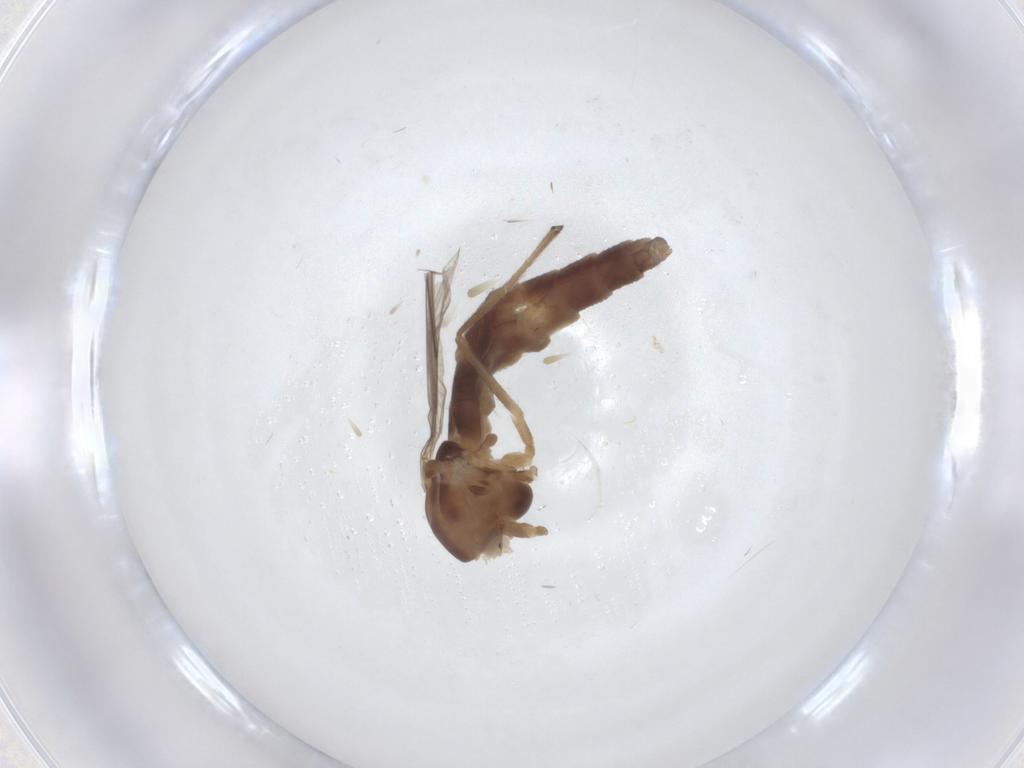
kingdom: Animalia
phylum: Arthropoda
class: Insecta
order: Diptera
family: Chironomidae
